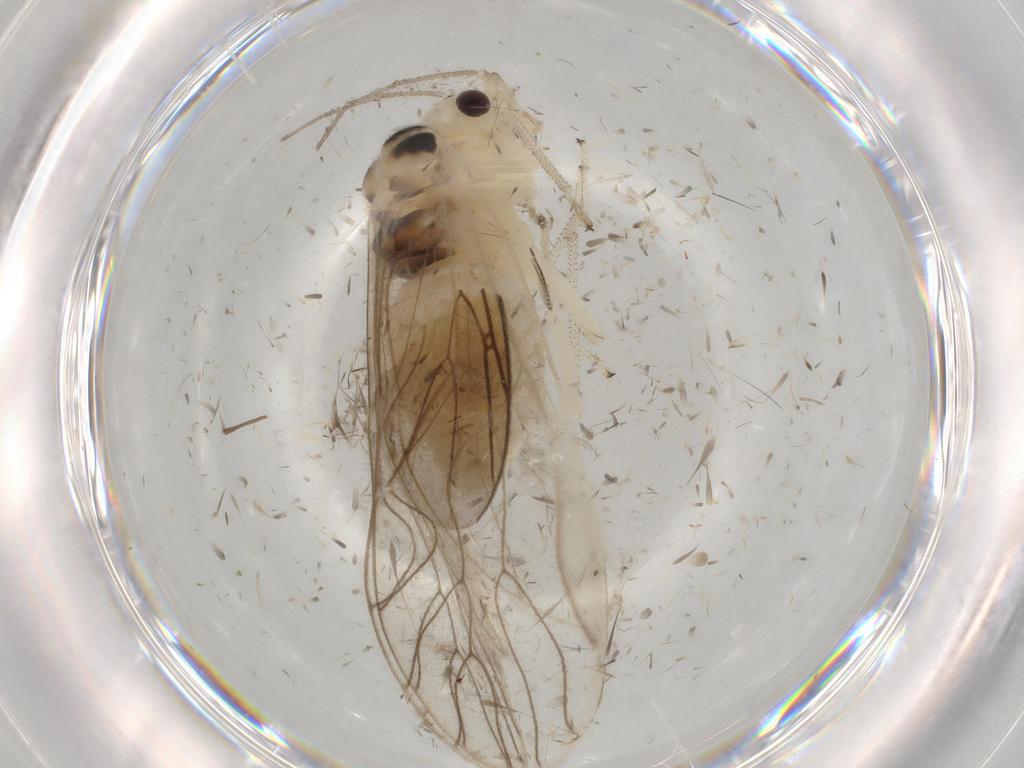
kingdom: Animalia
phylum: Arthropoda
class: Insecta
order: Psocodea
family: Amphipsocidae
